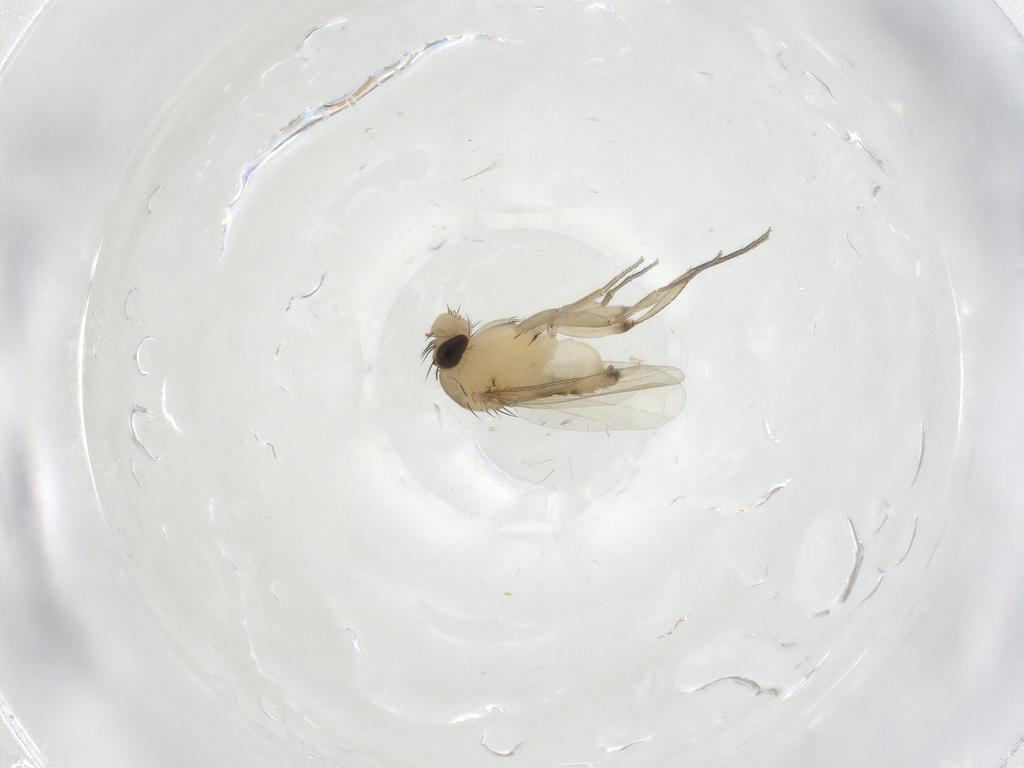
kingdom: Animalia
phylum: Arthropoda
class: Insecta
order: Diptera
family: Phoridae
